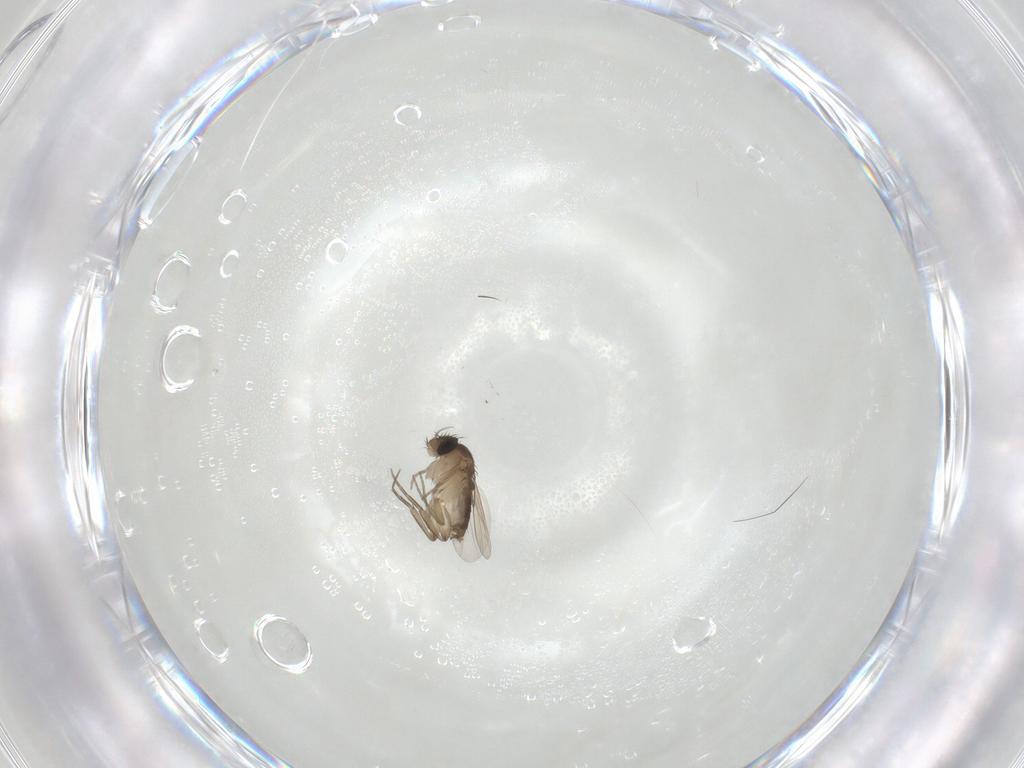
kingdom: Animalia
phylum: Arthropoda
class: Insecta
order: Diptera
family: Phoridae
